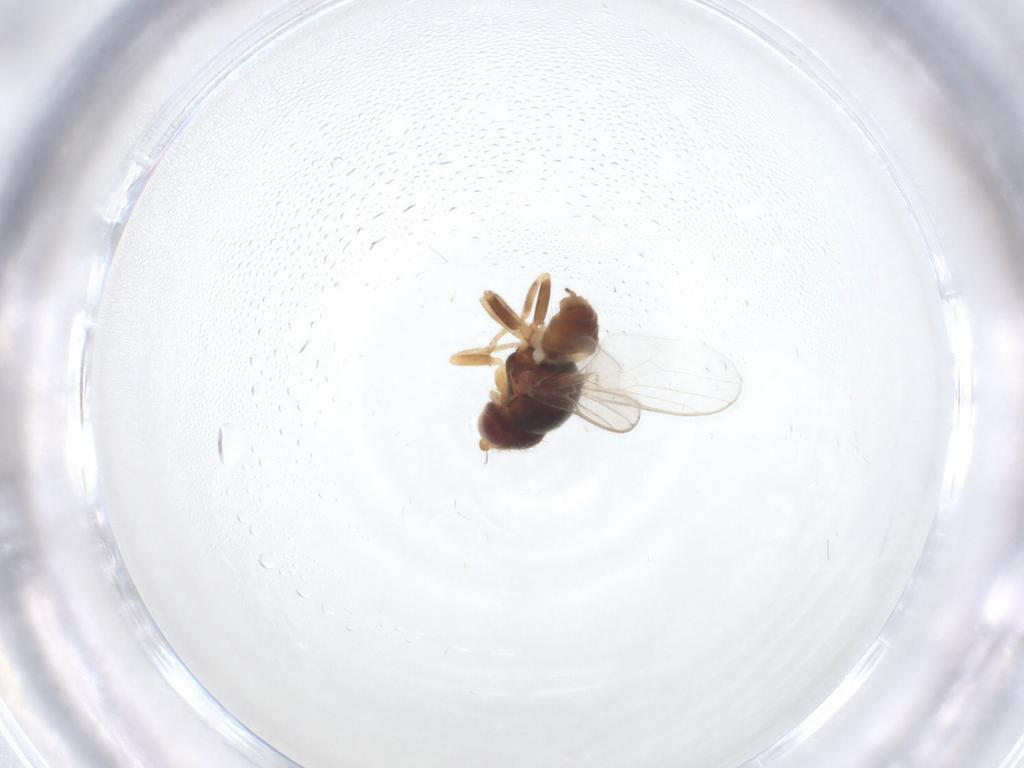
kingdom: Animalia
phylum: Arthropoda
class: Insecta
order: Diptera
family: Chloropidae
